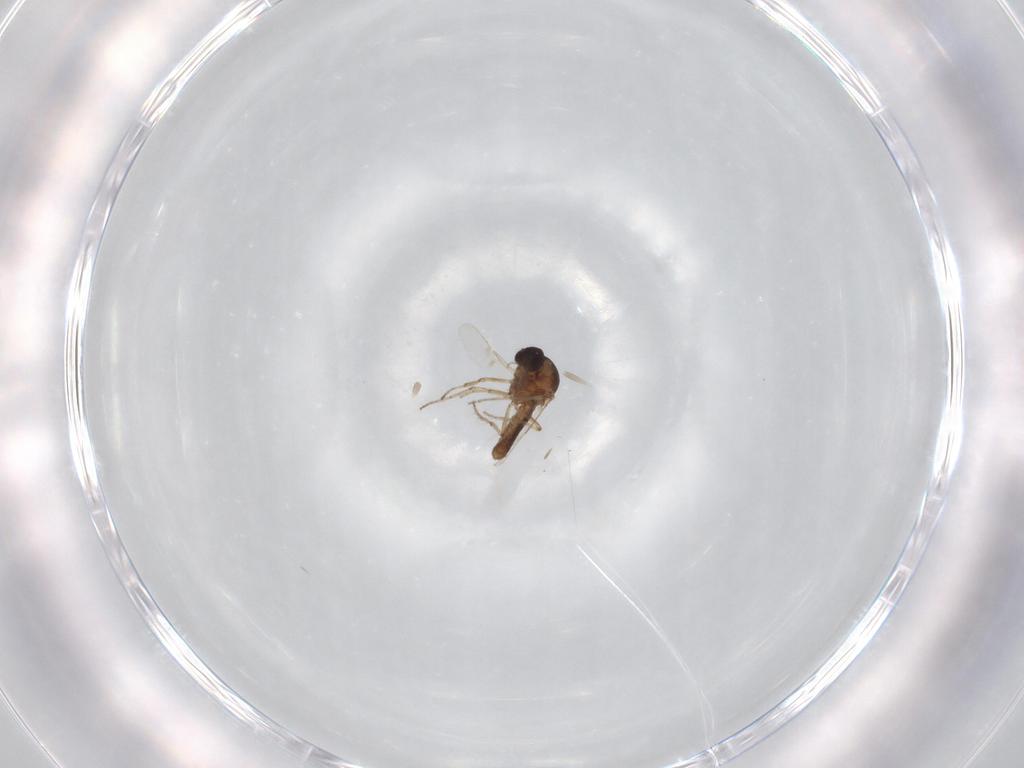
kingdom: Animalia
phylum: Arthropoda
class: Insecta
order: Diptera
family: Ceratopogonidae
